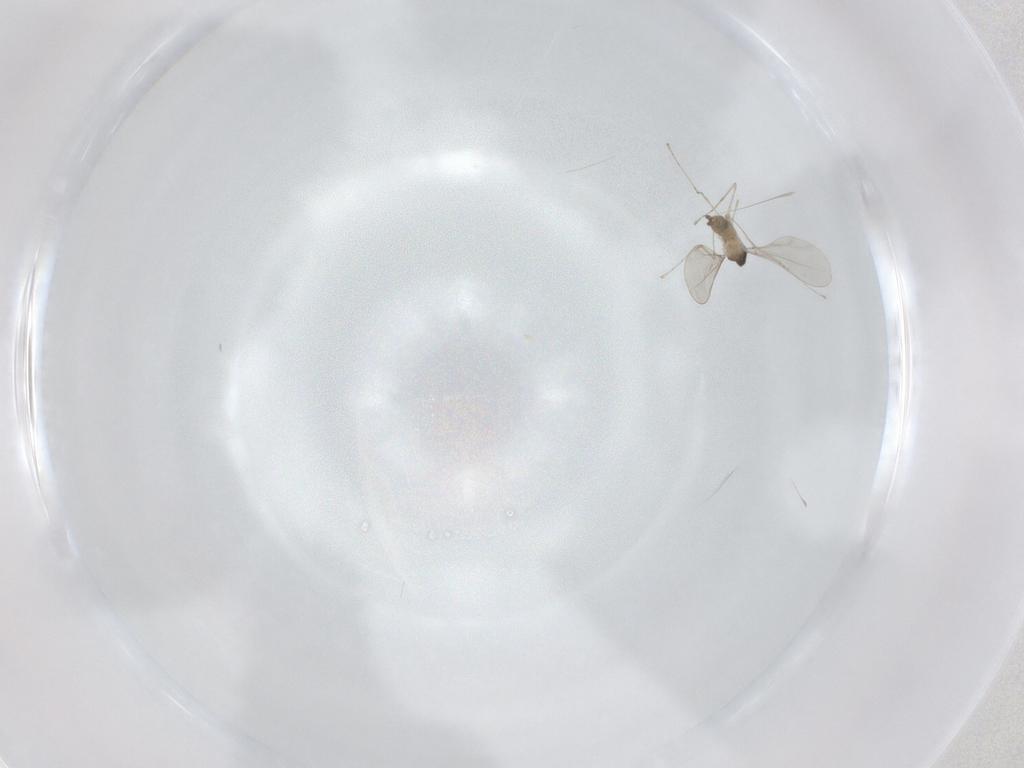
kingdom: Animalia
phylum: Arthropoda
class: Insecta
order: Diptera
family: Cecidomyiidae
